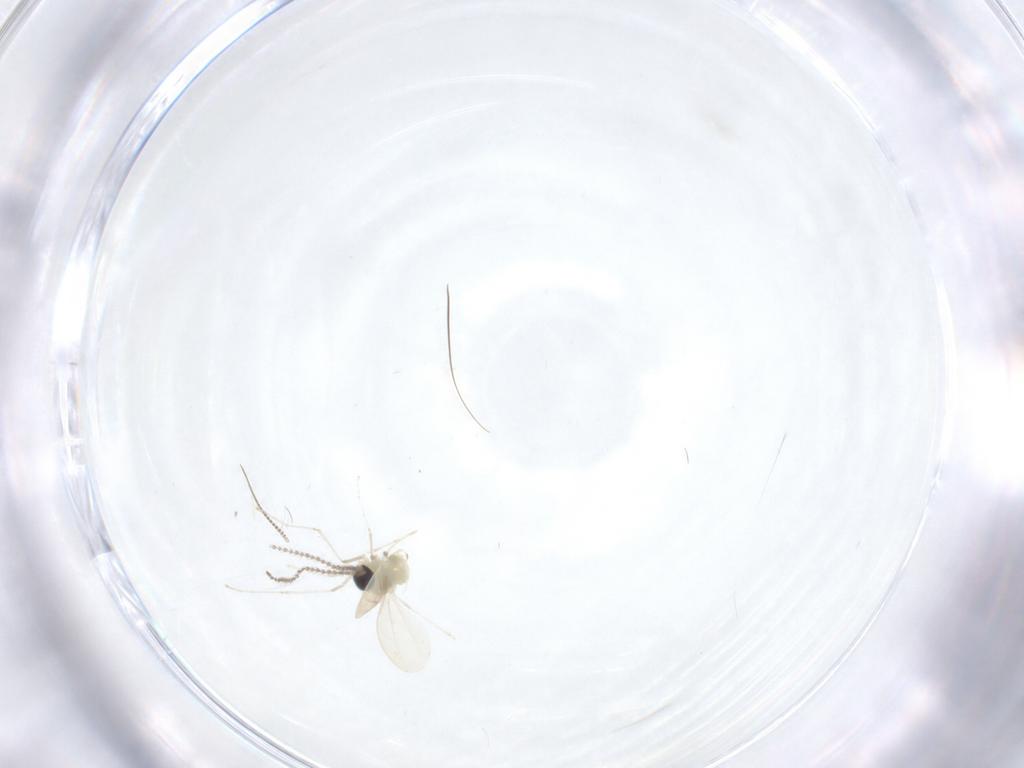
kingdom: Animalia
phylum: Arthropoda
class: Insecta
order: Diptera
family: Cecidomyiidae
